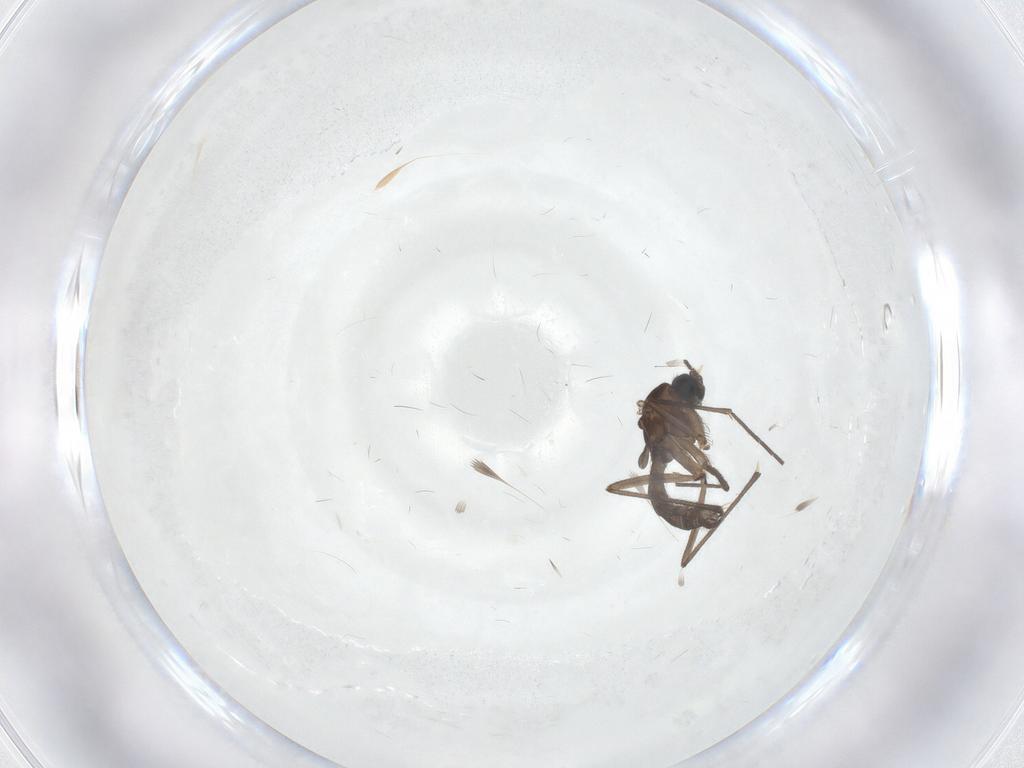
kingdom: Animalia
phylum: Arthropoda
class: Insecta
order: Diptera
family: Sciaridae
